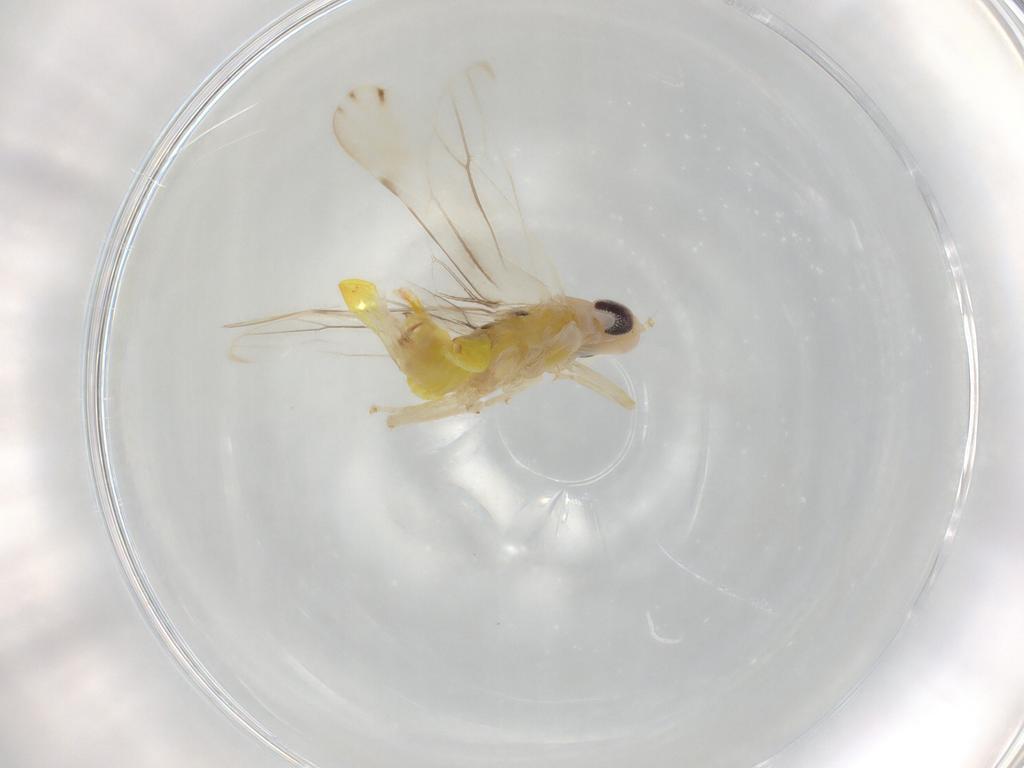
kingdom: Animalia
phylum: Arthropoda
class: Insecta
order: Hemiptera
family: Cicadellidae
